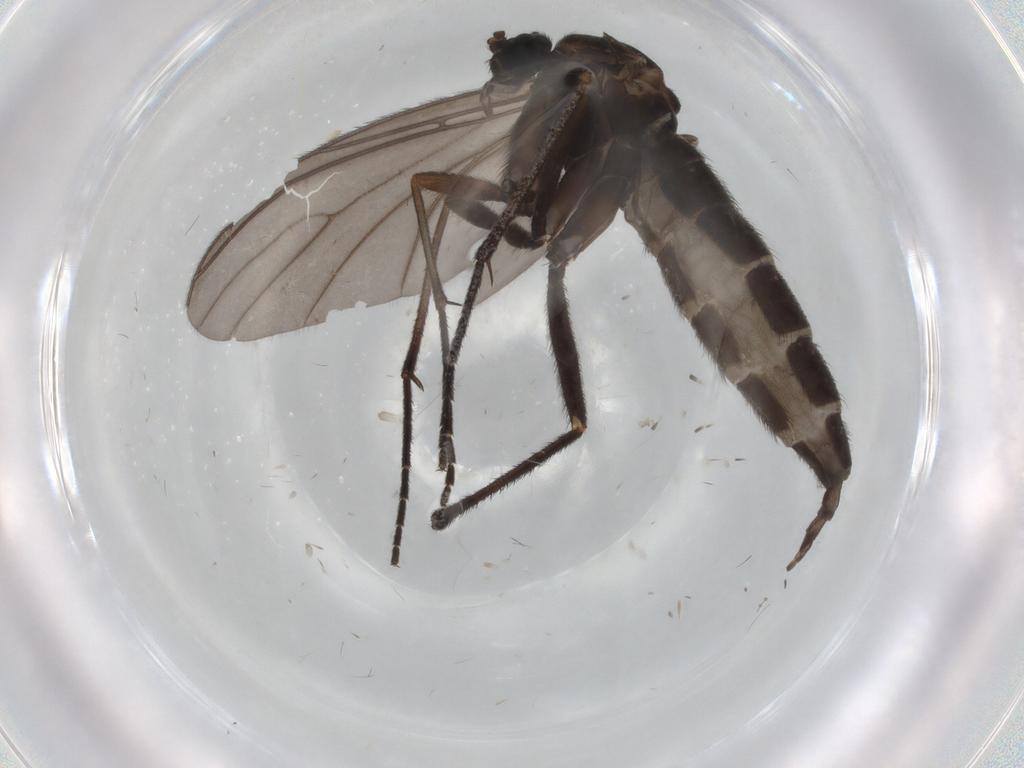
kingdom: Animalia
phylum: Arthropoda
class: Insecta
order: Diptera
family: Sciaridae
